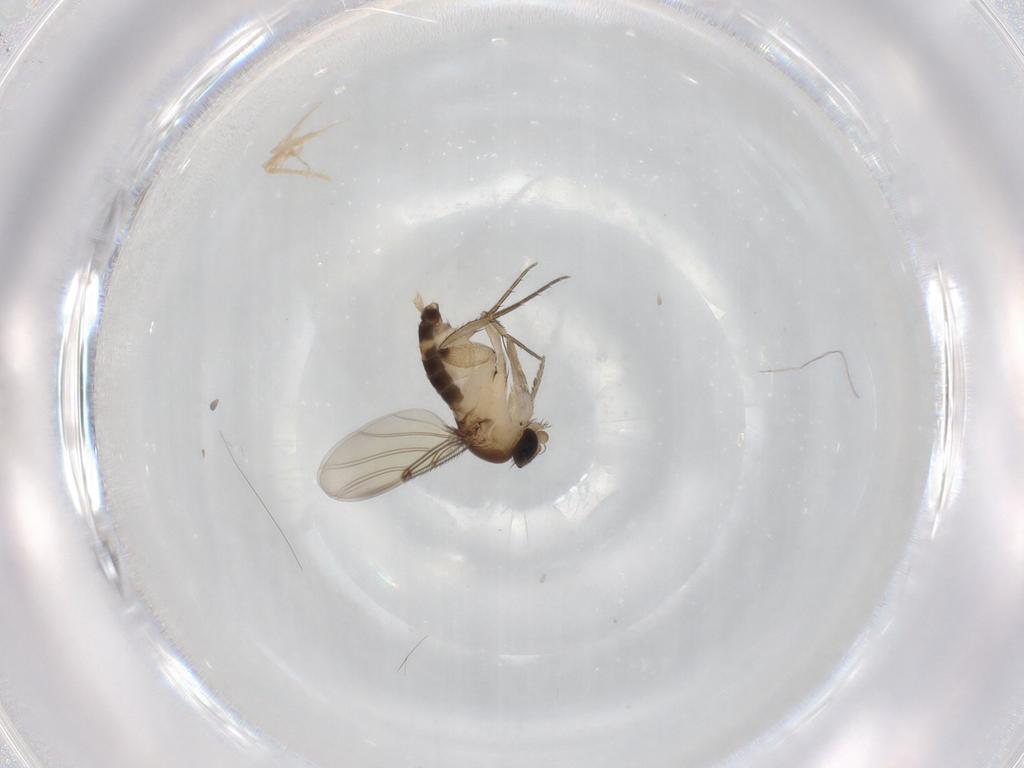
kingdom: Animalia
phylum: Arthropoda
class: Insecta
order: Diptera
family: Phoridae
